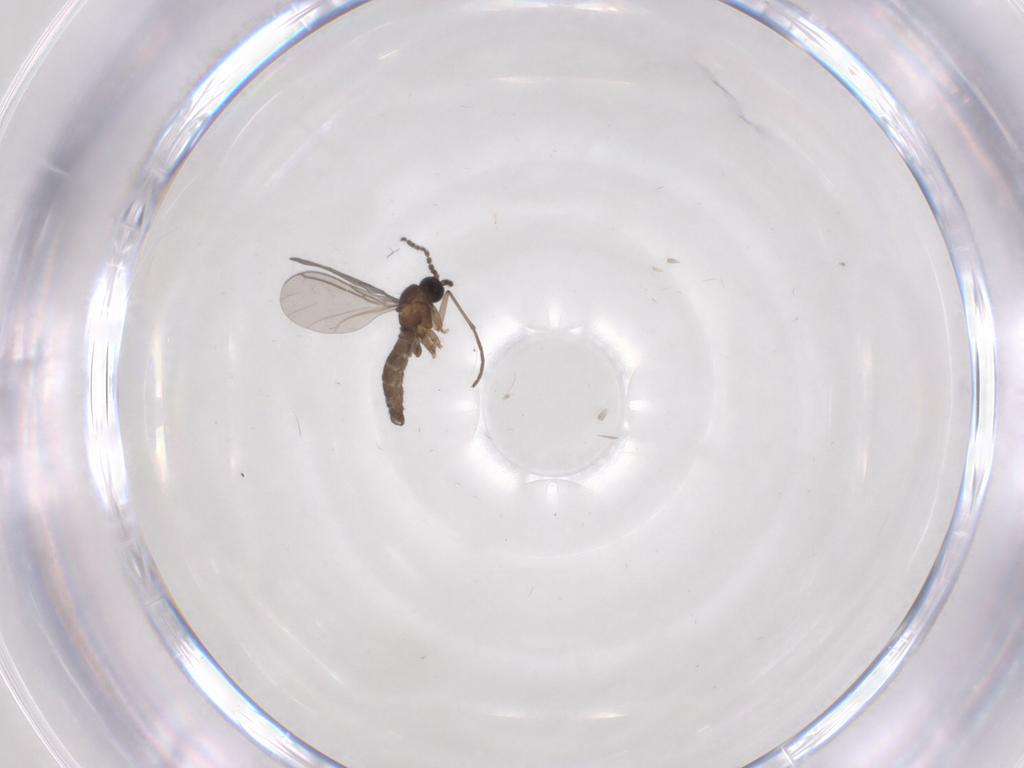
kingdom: Animalia
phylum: Arthropoda
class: Insecta
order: Diptera
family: Sciaridae
